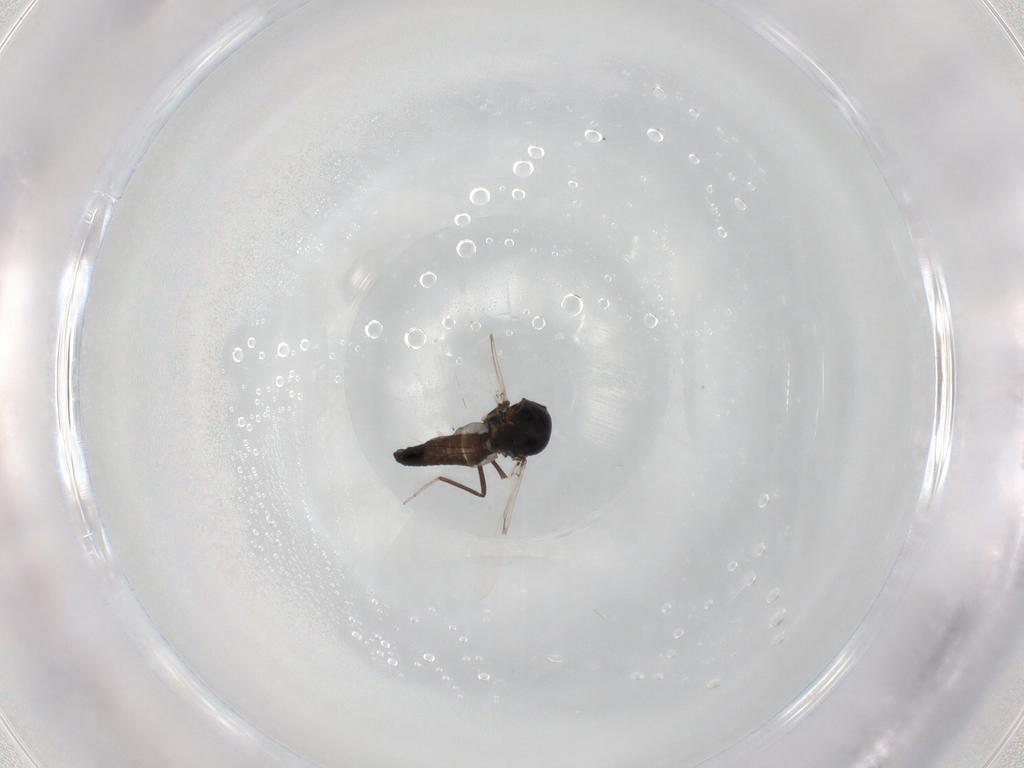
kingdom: Animalia
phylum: Arthropoda
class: Insecta
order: Diptera
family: Ceratopogonidae
